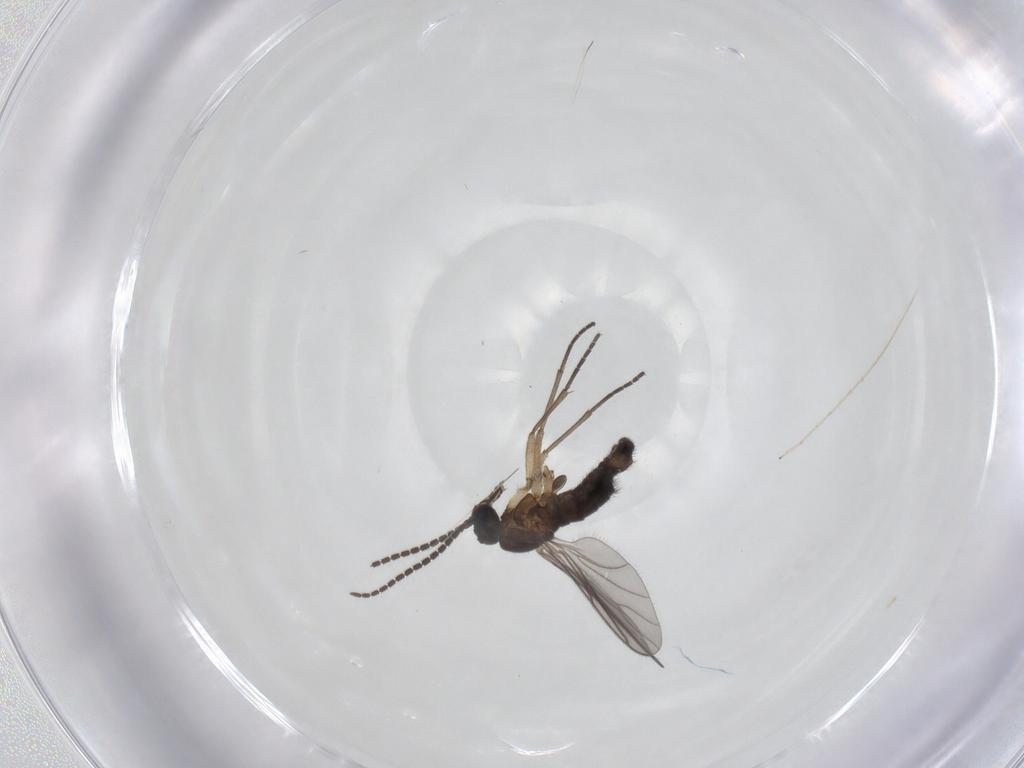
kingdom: Animalia
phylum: Arthropoda
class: Insecta
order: Diptera
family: Sciaridae
